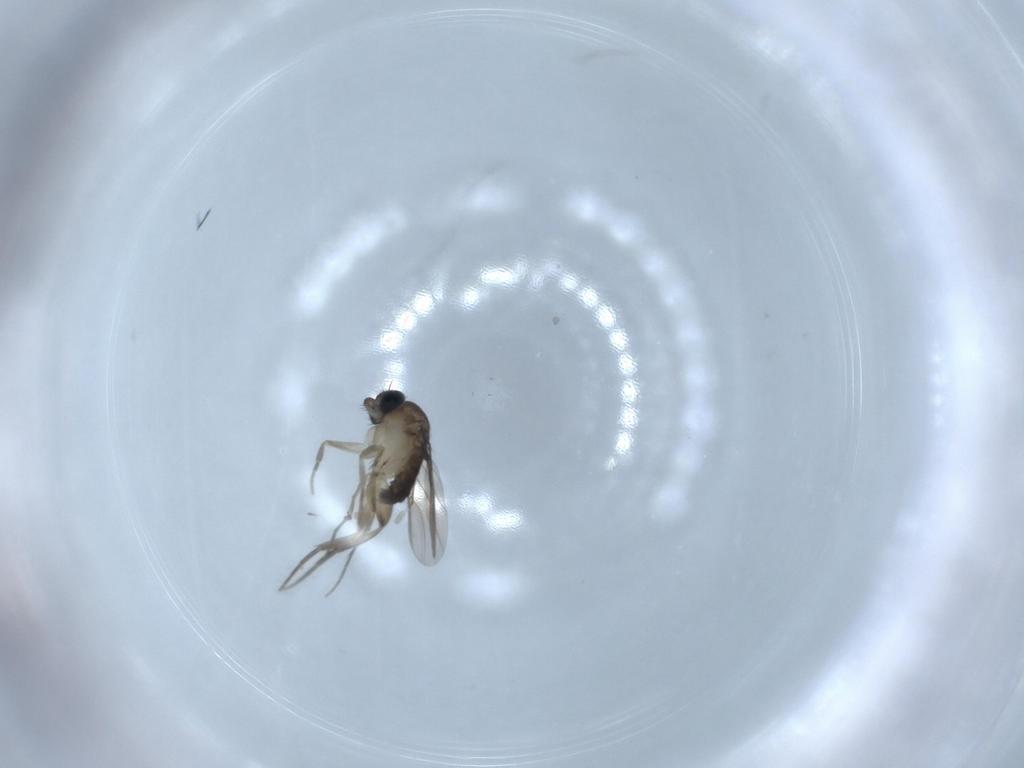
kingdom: Animalia
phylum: Arthropoda
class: Insecta
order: Diptera
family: Phoridae
